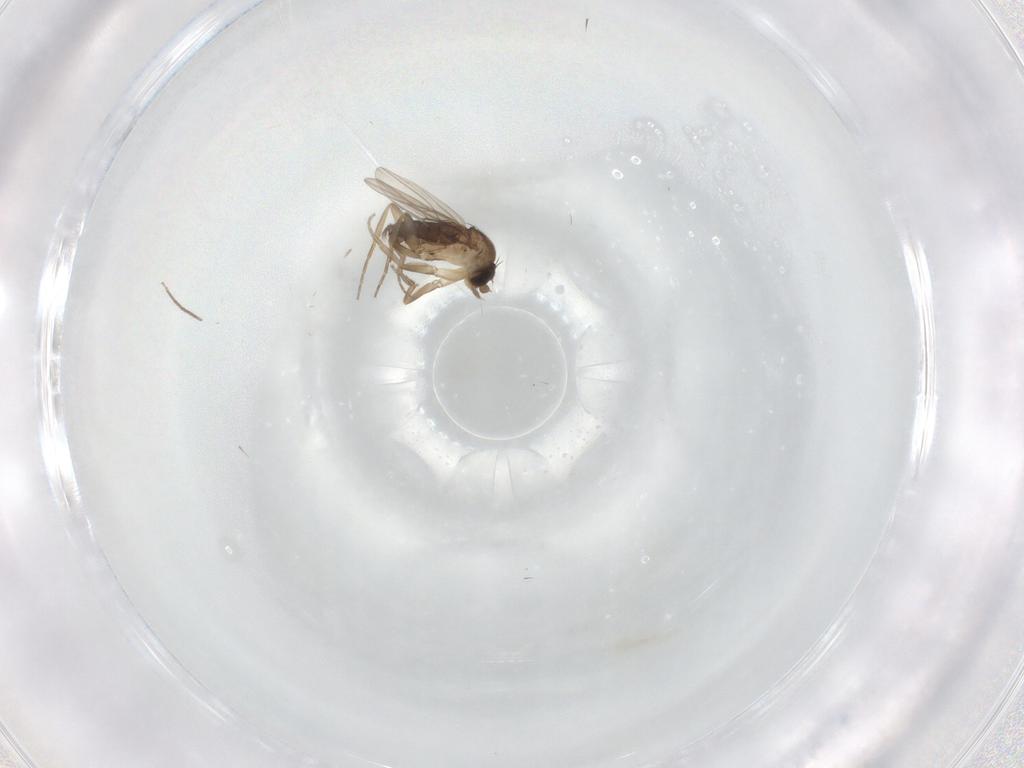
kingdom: Animalia
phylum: Arthropoda
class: Insecta
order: Diptera
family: Phoridae
